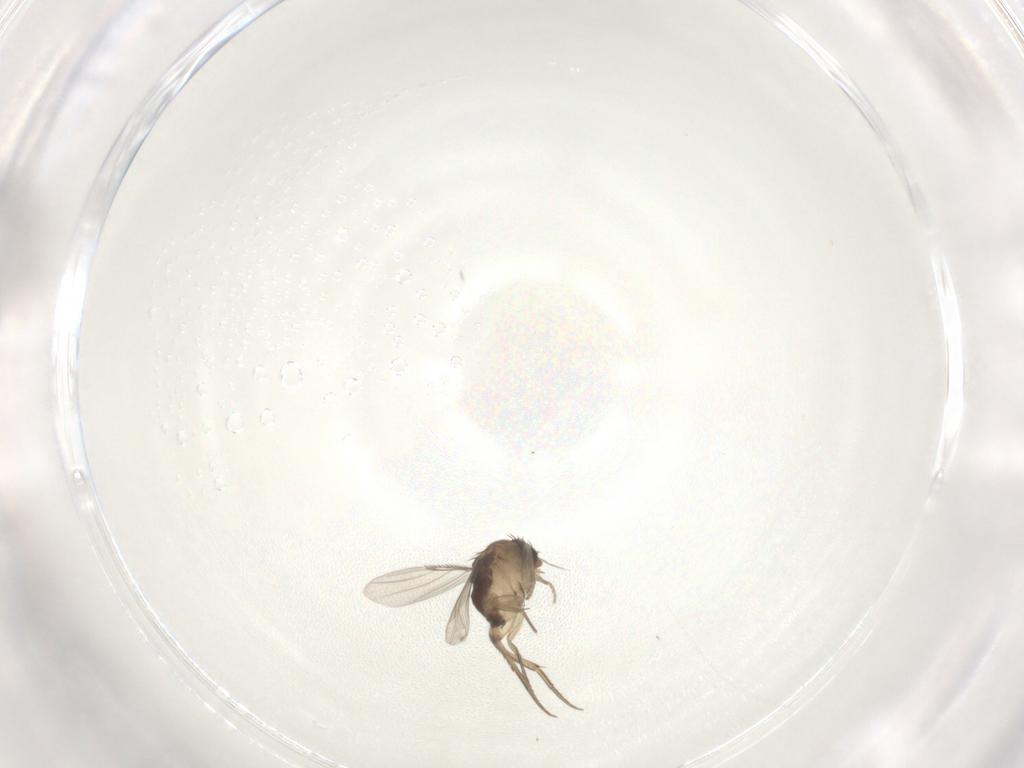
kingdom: Animalia
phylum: Arthropoda
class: Insecta
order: Diptera
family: Phoridae
